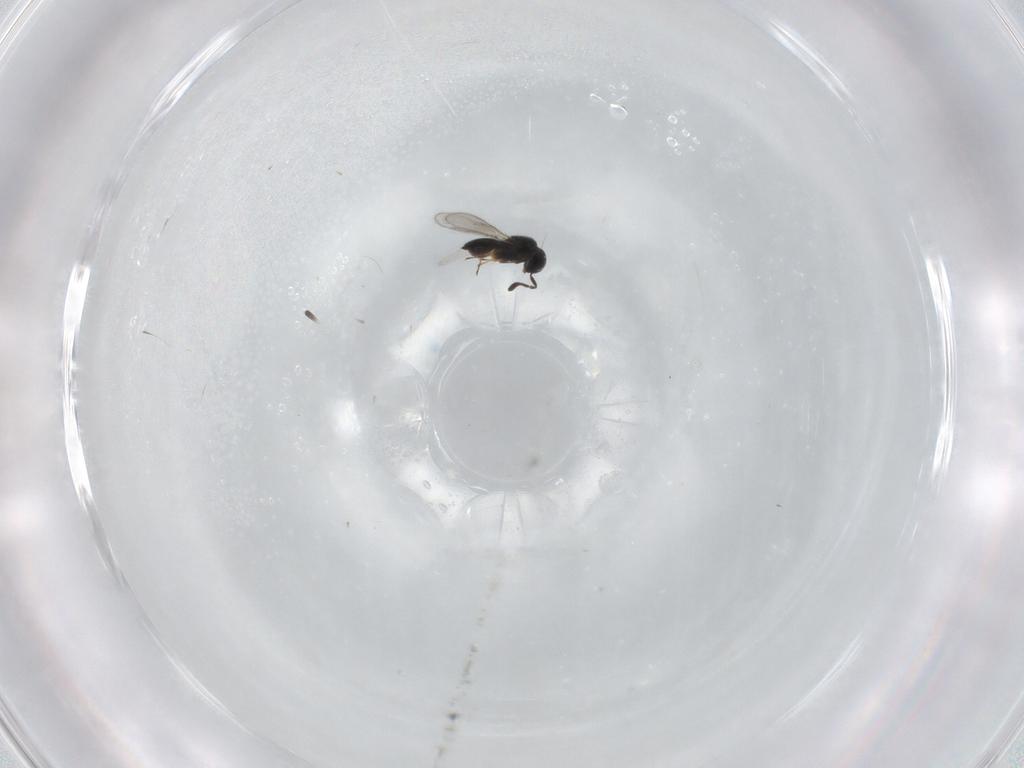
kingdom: Animalia
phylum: Arthropoda
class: Insecta
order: Hymenoptera
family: Scelionidae
